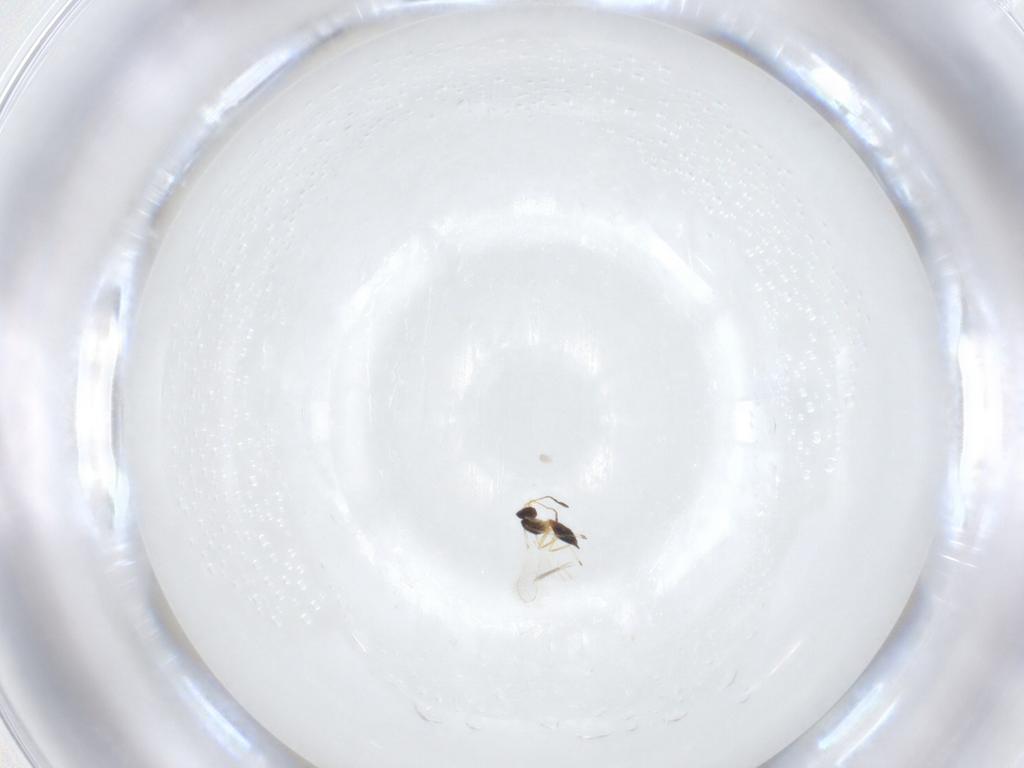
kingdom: Animalia
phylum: Arthropoda
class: Insecta
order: Hymenoptera
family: Mymaridae
